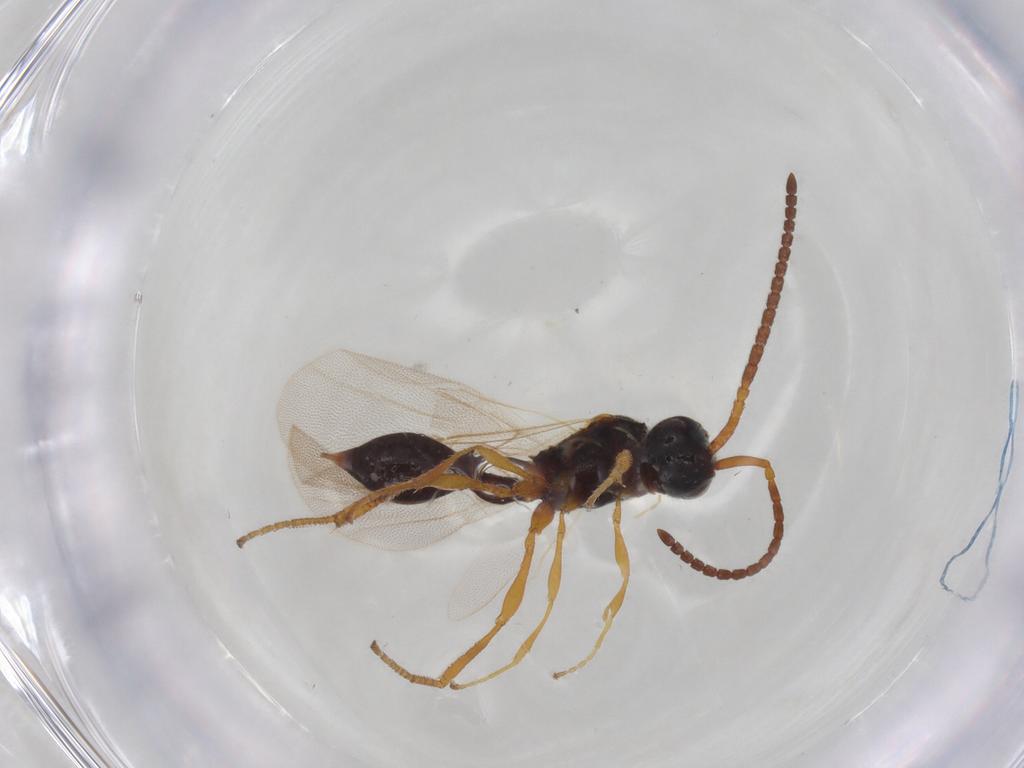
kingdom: Animalia
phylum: Arthropoda
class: Insecta
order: Hymenoptera
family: Diapriidae
